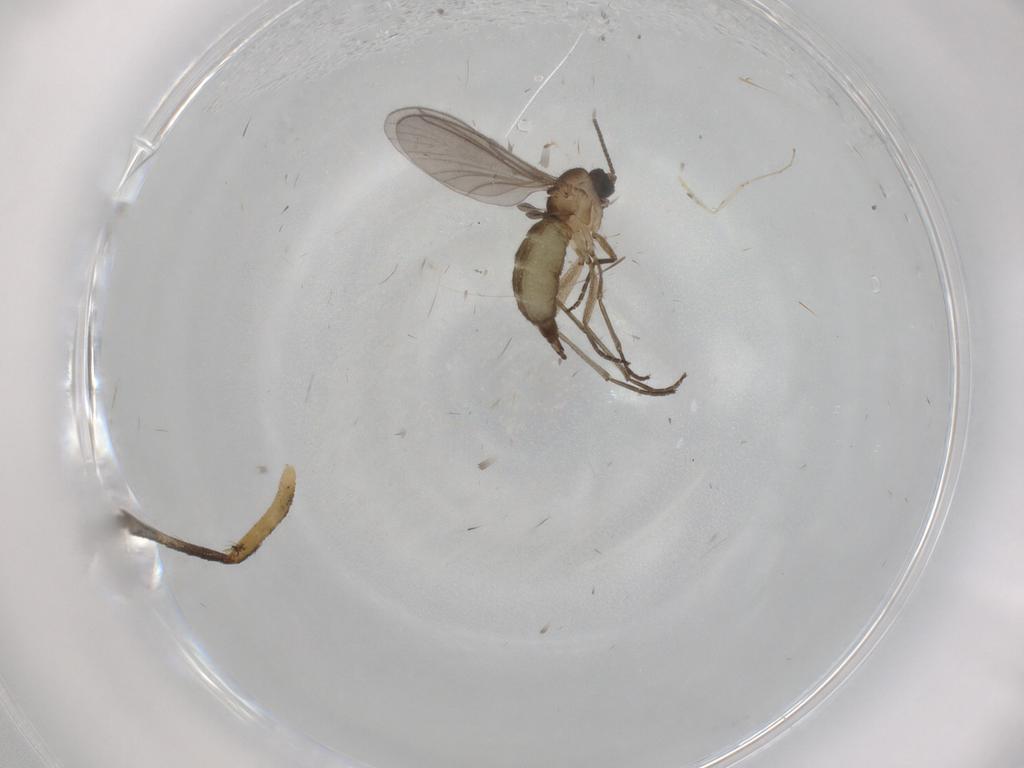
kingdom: Animalia
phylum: Arthropoda
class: Insecta
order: Diptera
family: Sciaridae
